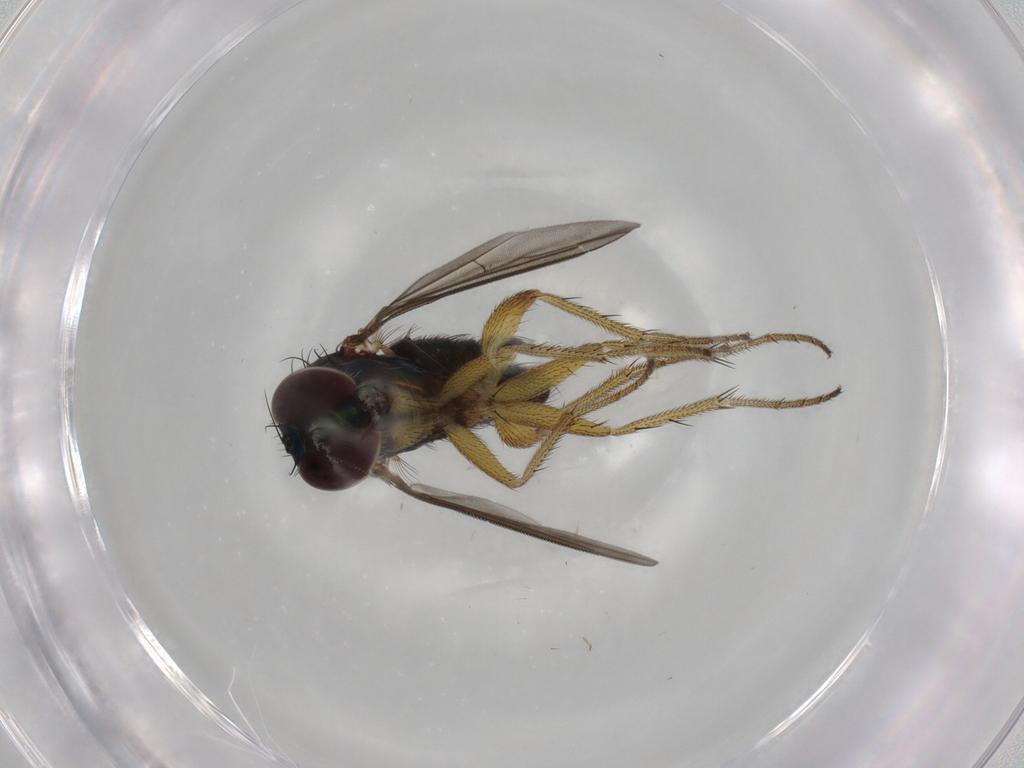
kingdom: Animalia
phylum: Arthropoda
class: Insecta
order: Diptera
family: Dolichopodidae
